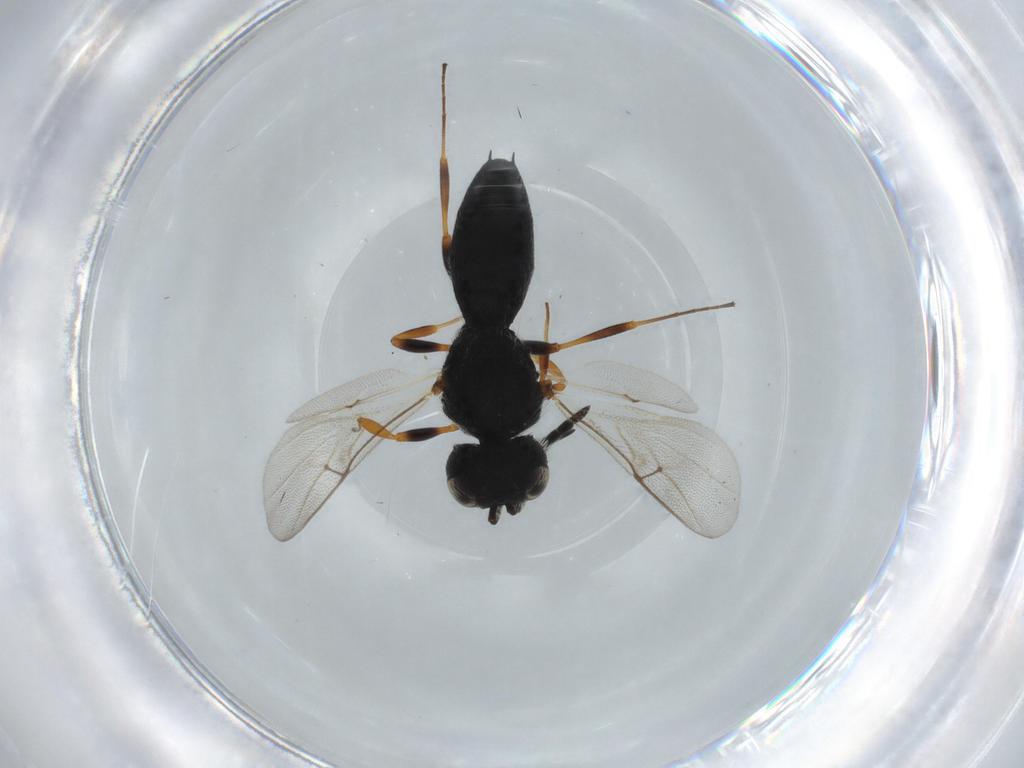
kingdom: Animalia
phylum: Arthropoda
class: Insecta
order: Hymenoptera
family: Scelionidae
